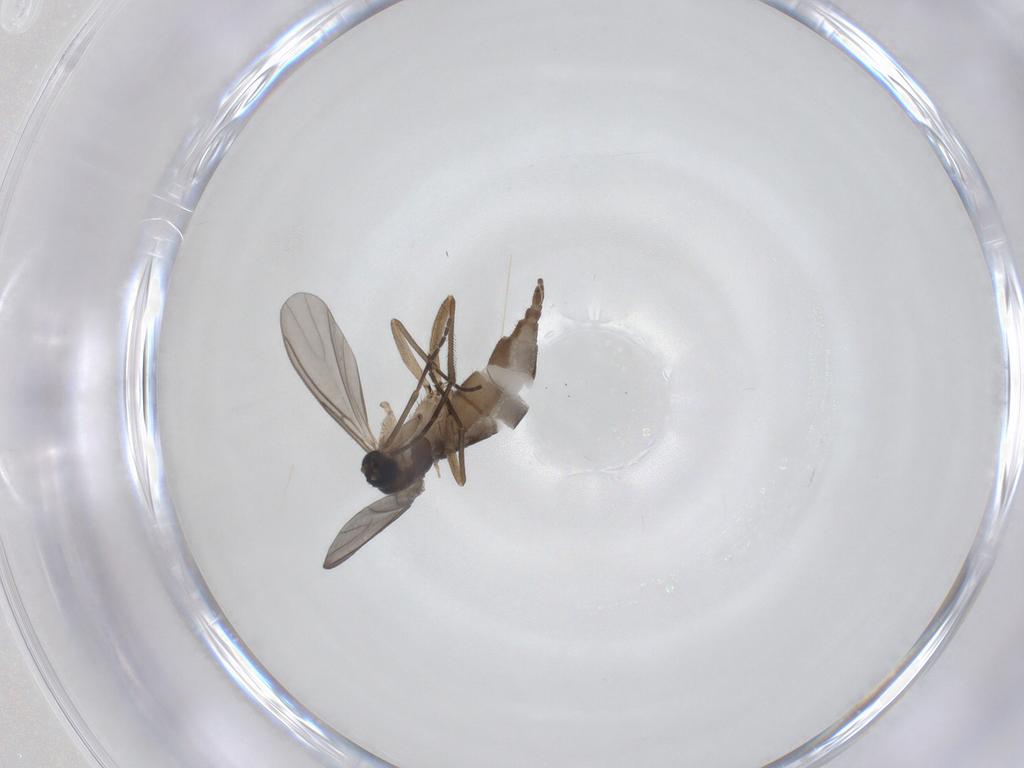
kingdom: Animalia
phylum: Arthropoda
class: Insecta
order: Diptera
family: Sciaridae
